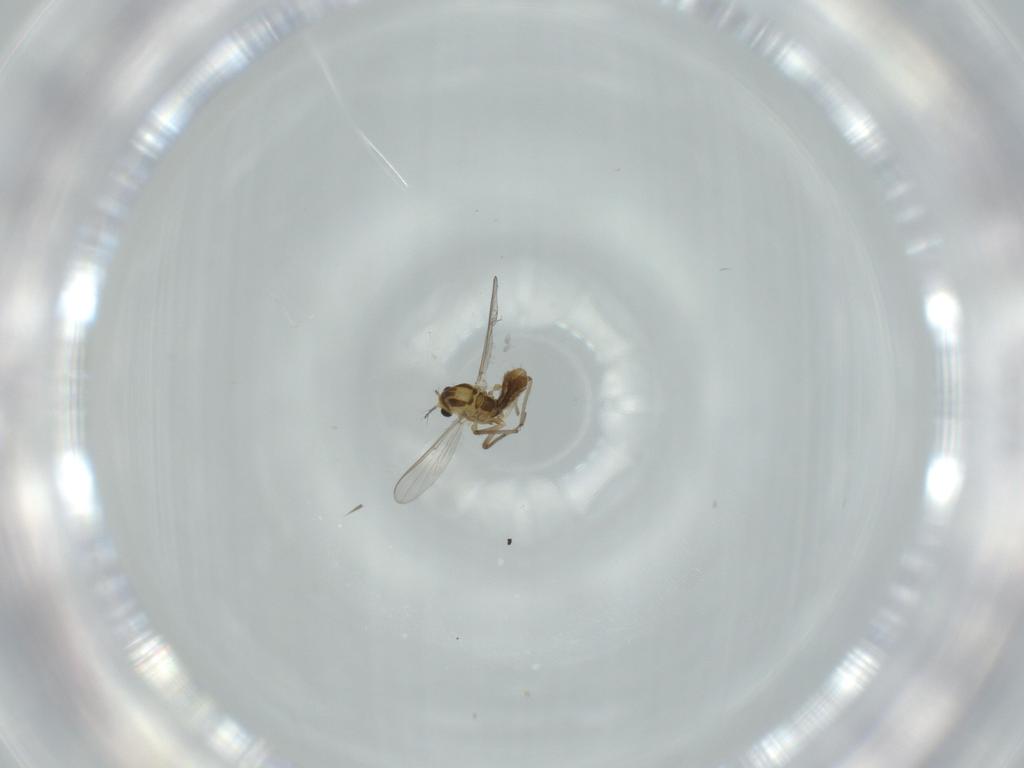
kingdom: Animalia
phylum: Arthropoda
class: Insecta
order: Diptera
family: Chironomidae
